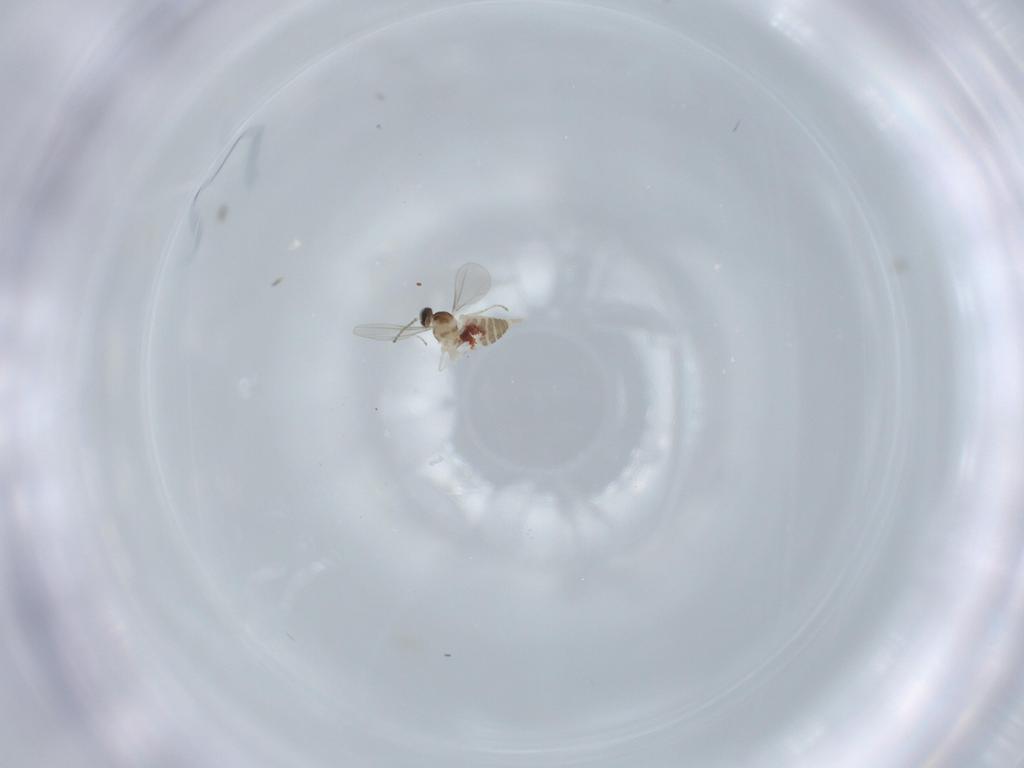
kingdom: Animalia
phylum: Arthropoda
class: Insecta
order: Diptera
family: Cecidomyiidae
